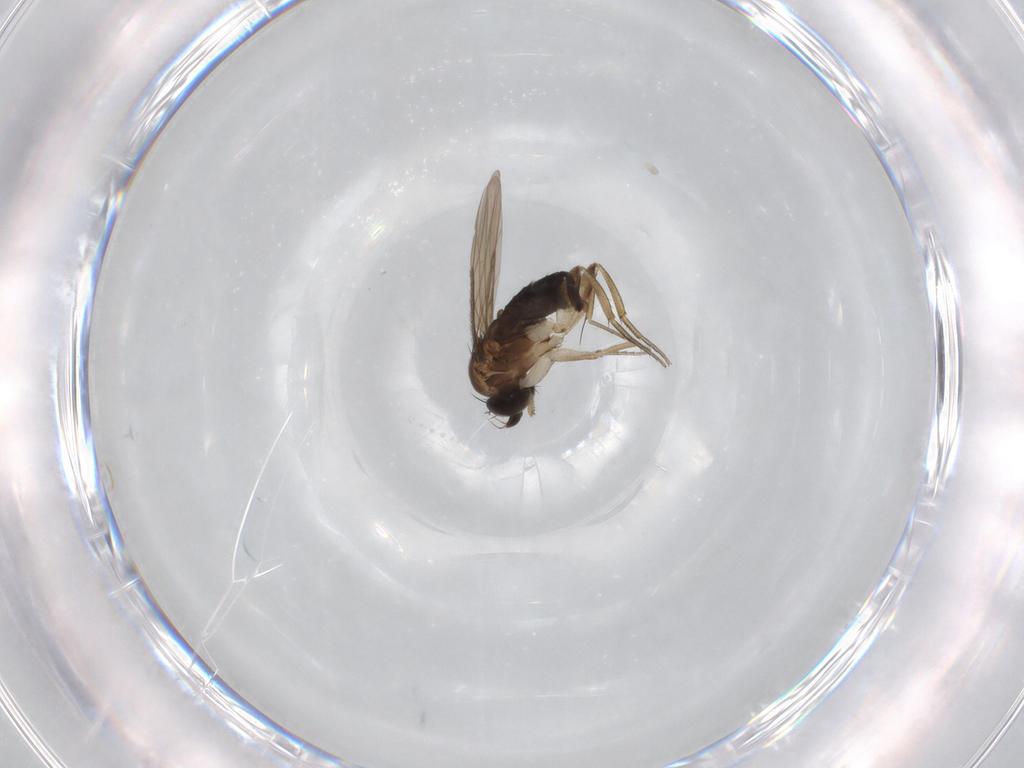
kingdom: Animalia
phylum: Arthropoda
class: Insecta
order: Diptera
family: Phoridae
